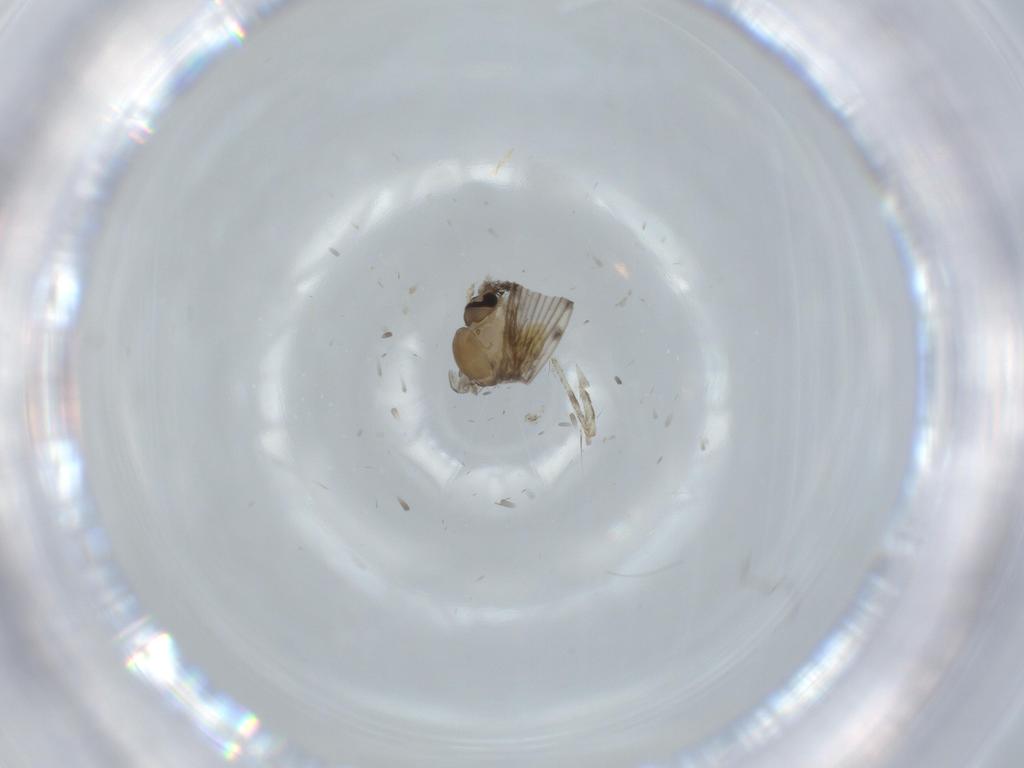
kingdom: Animalia
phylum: Arthropoda
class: Insecta
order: Diptera
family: Psychodidae
